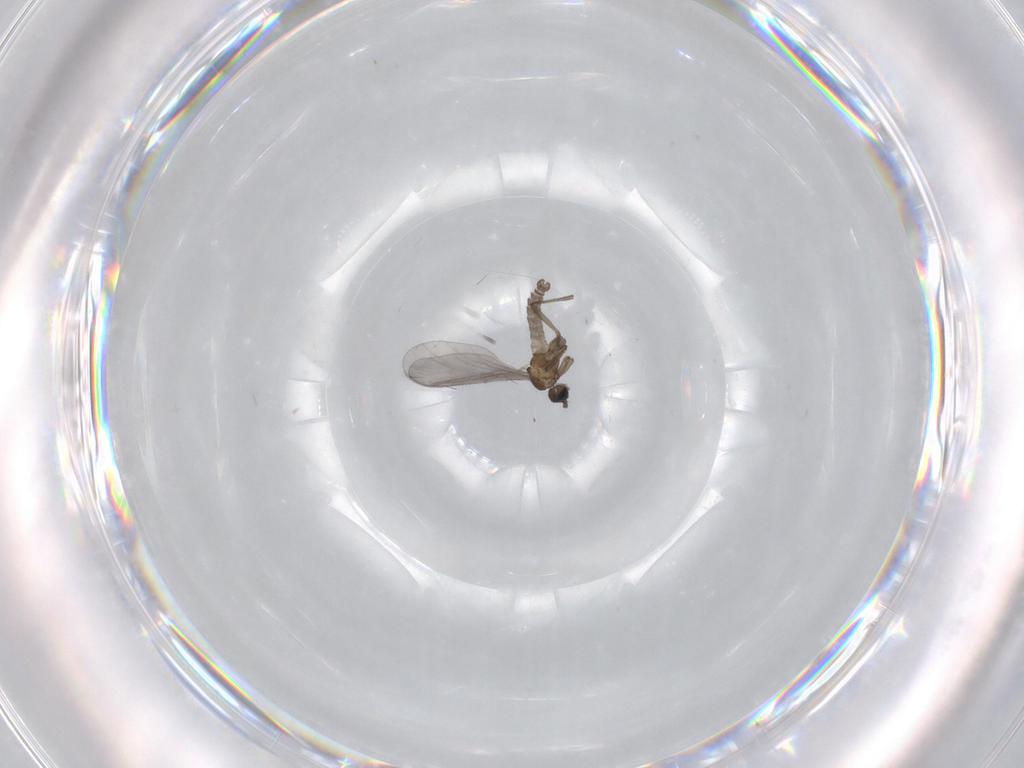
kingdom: Animalia
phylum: Arthropoda
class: Insecta
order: Diptera
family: Sciaridae
